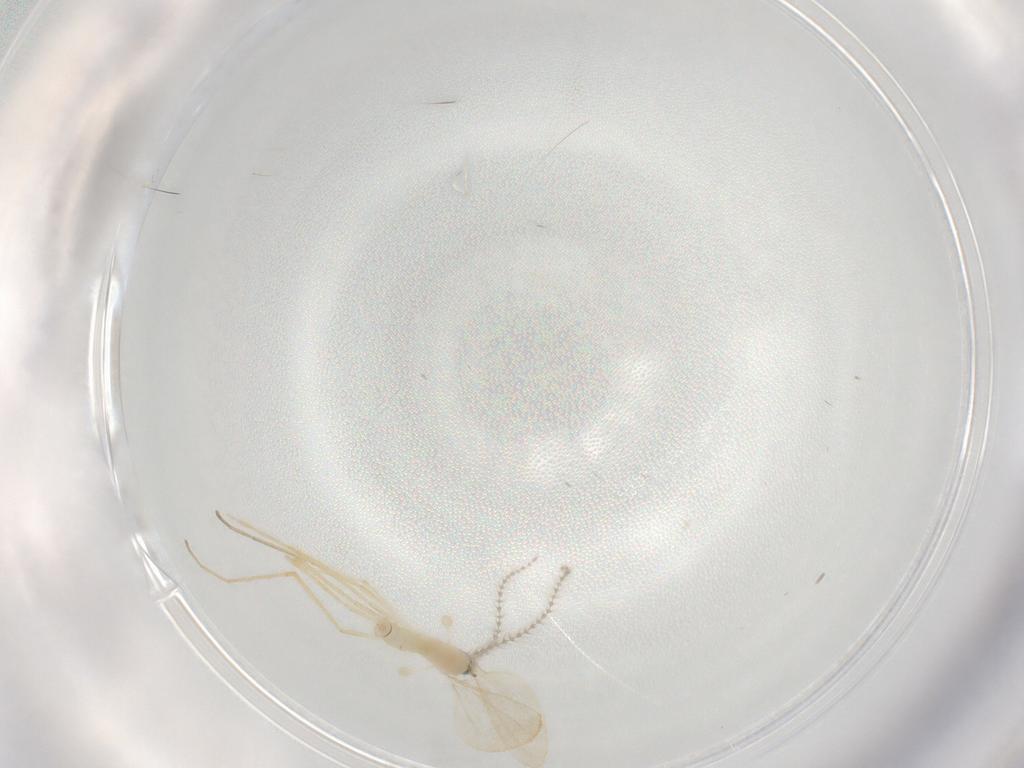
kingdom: Animalia
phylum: Arthropoda
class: Insecta
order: Diptera
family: Cecidomyiidae
